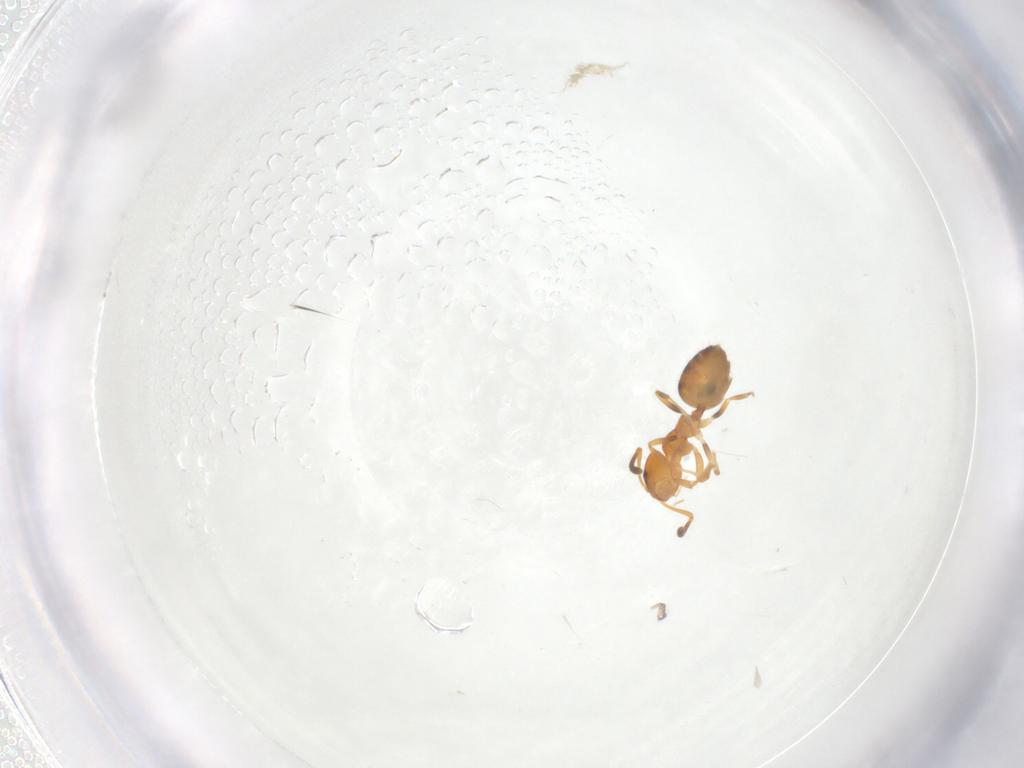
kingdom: Animalia
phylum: Arthropoda
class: Insecta
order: Hymenoptera
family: Formicidae
